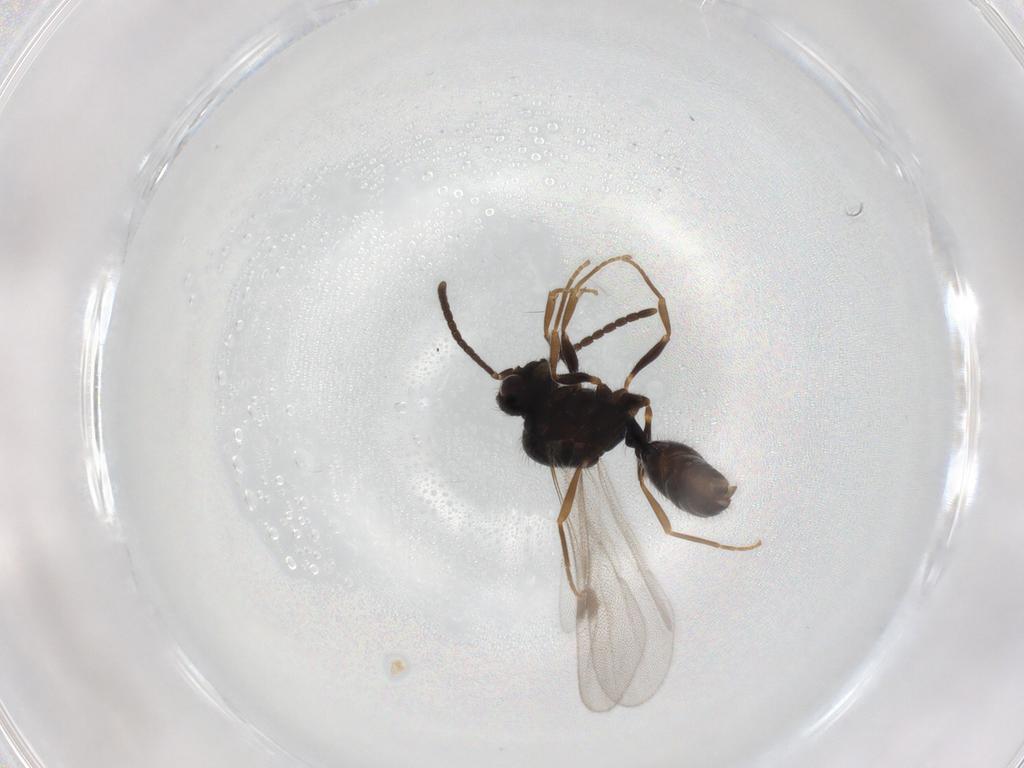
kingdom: Animalia
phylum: Arthropoda
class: Insecta
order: Hymenoptera
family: Formicidae
